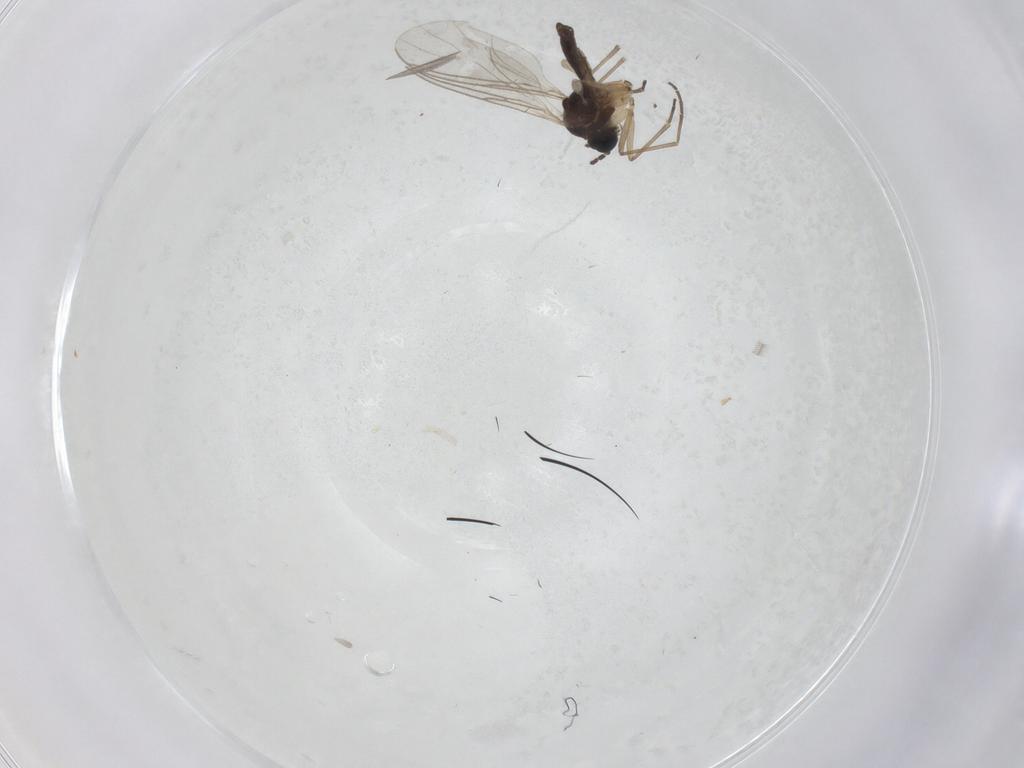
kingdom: Animalia
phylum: Arthropoda
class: Insecta
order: Diptera
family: Sciaridae
